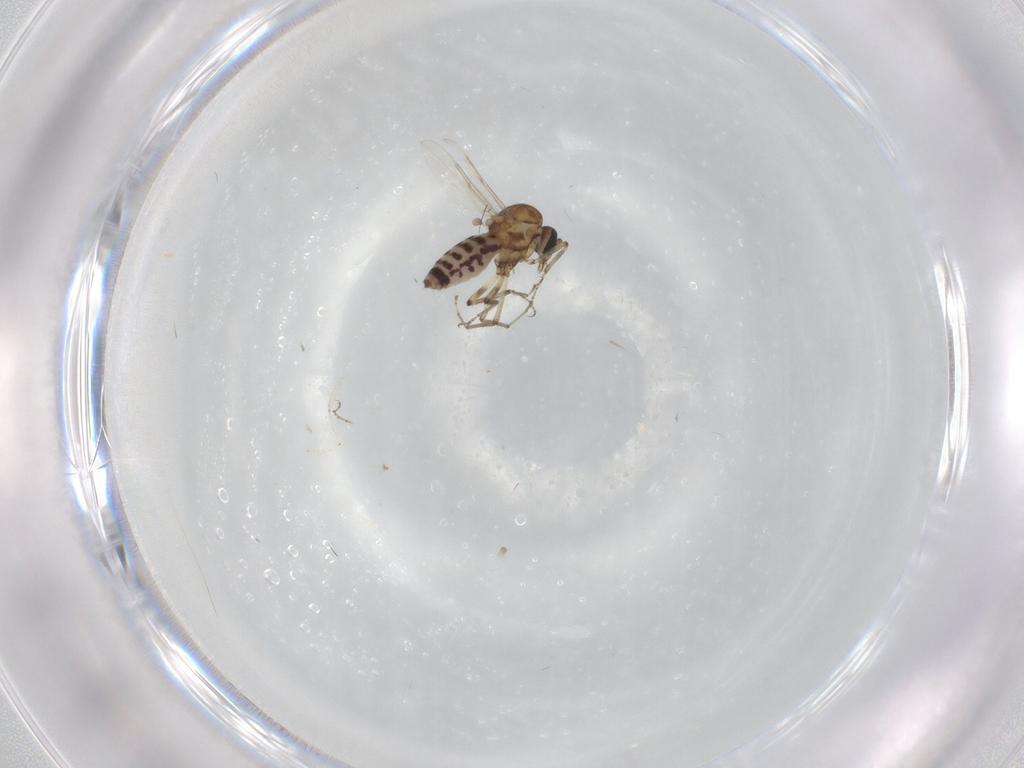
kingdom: Animalia
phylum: Arthropoda
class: Insecta
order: Diptera
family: Cecidomyiidae
